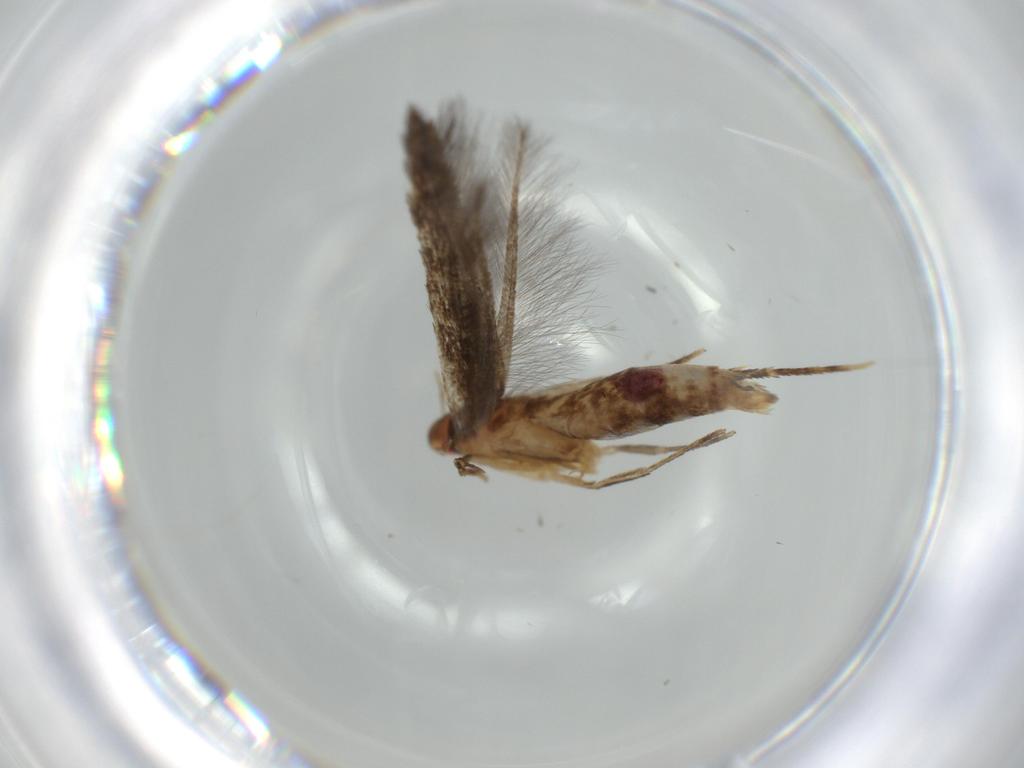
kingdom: Animalia
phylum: Arthropoda
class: Insecta
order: Lepidoptera
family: Cosmopterigidae
